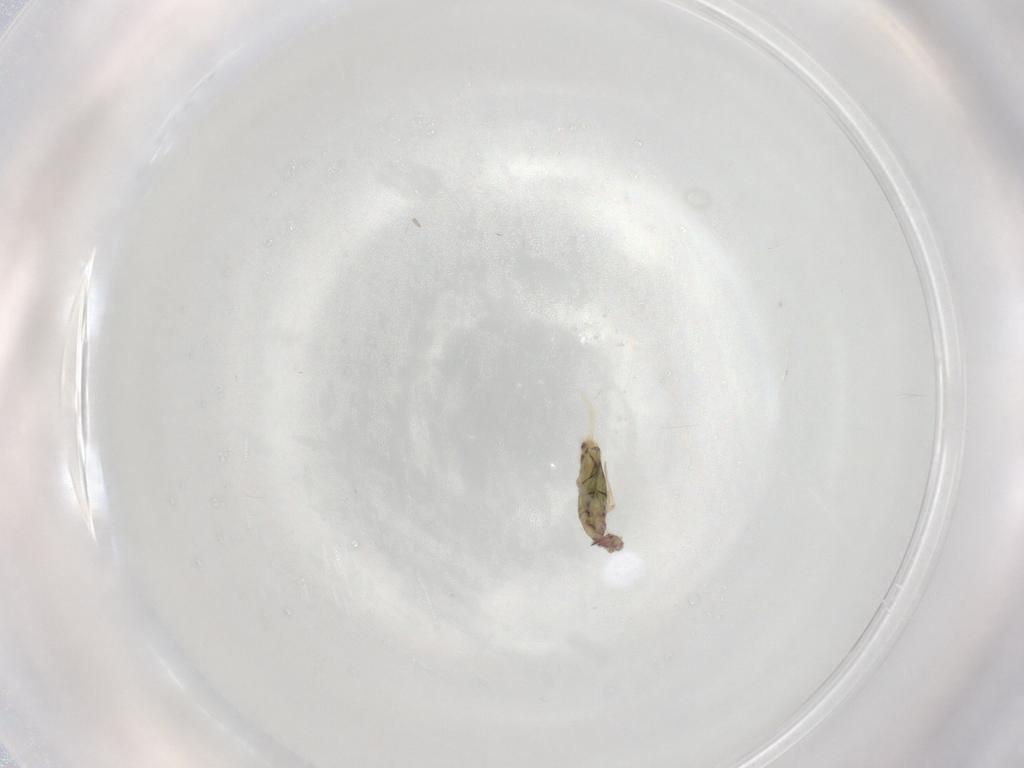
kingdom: Animalia
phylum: Arthropoda
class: Collembola
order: Entomobryomorpha
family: Entomobryidae
